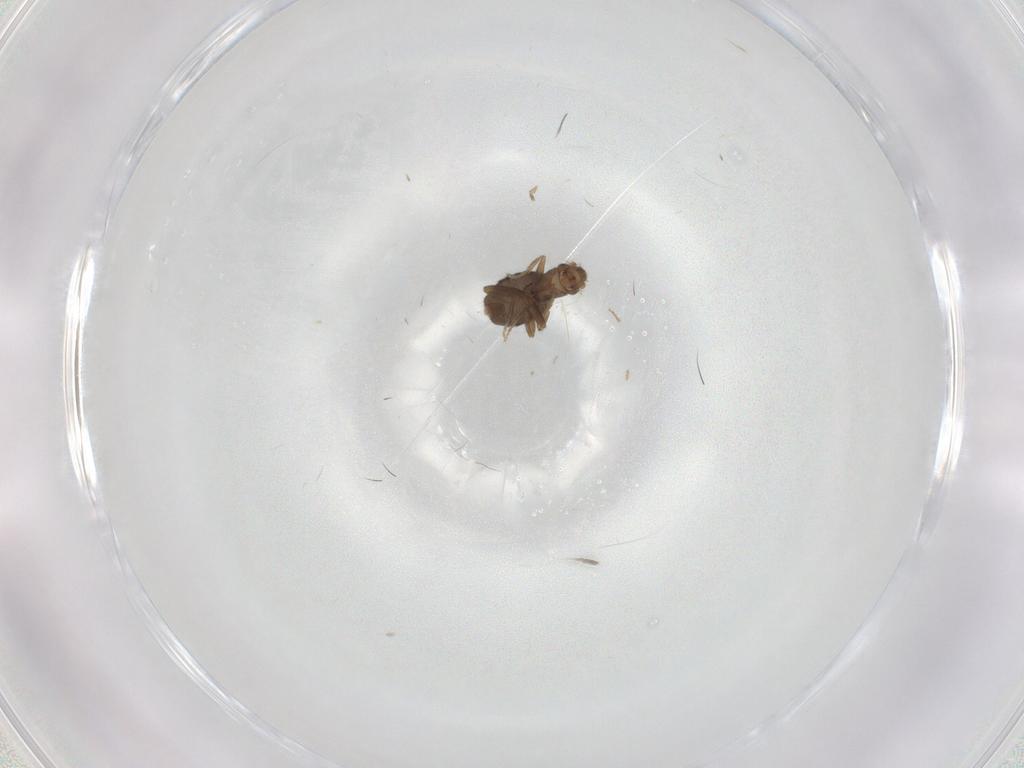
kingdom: Animalia
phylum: Arthropoda
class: Insecta
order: Diptera
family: Phoridae
